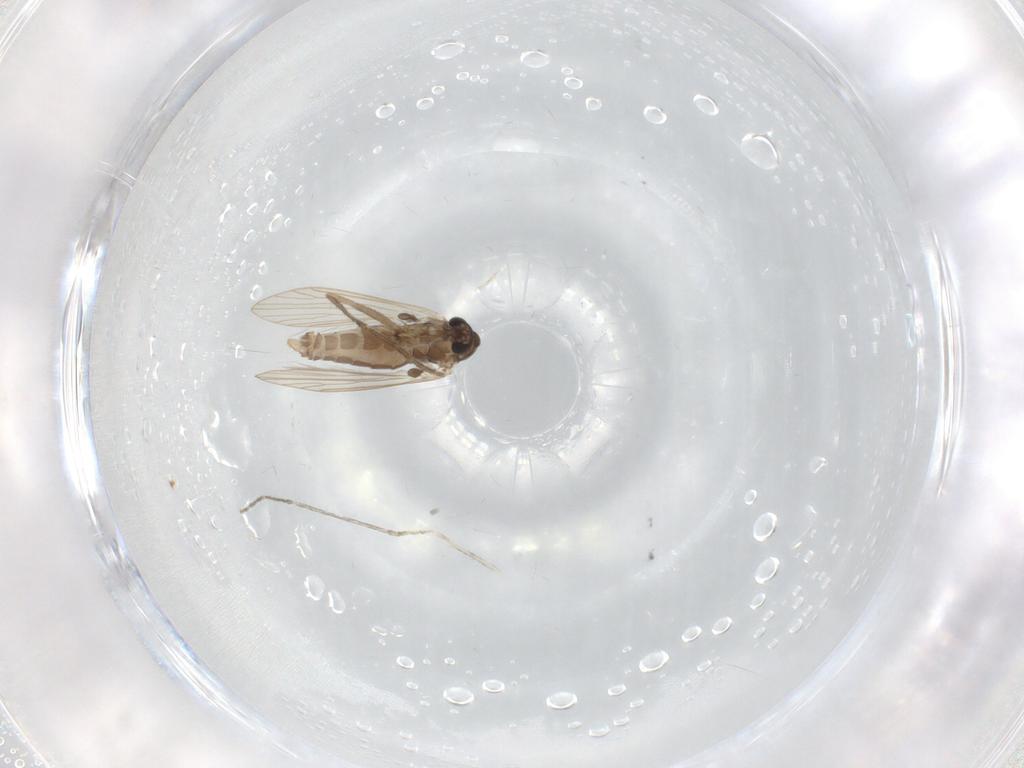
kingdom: Animalia
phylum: Arthropoda
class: Insecta
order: Diptera
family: Psychodidae
